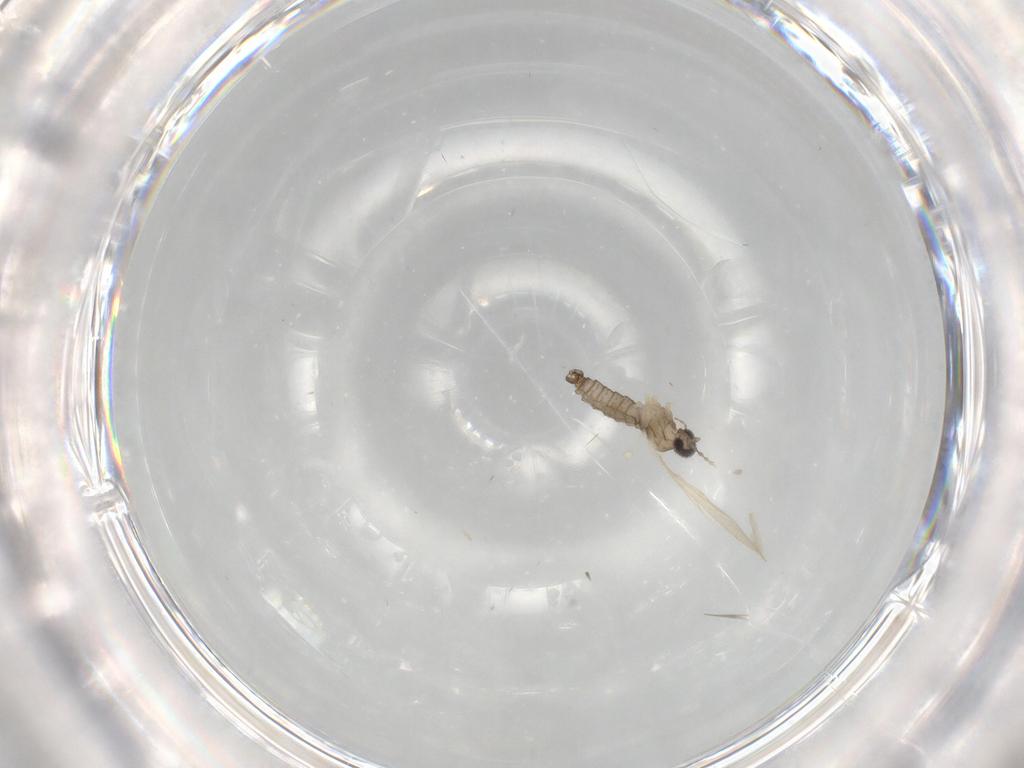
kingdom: Animalia
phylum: Arthropoda
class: Insecta
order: Diptera
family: Cecidomyiidae
